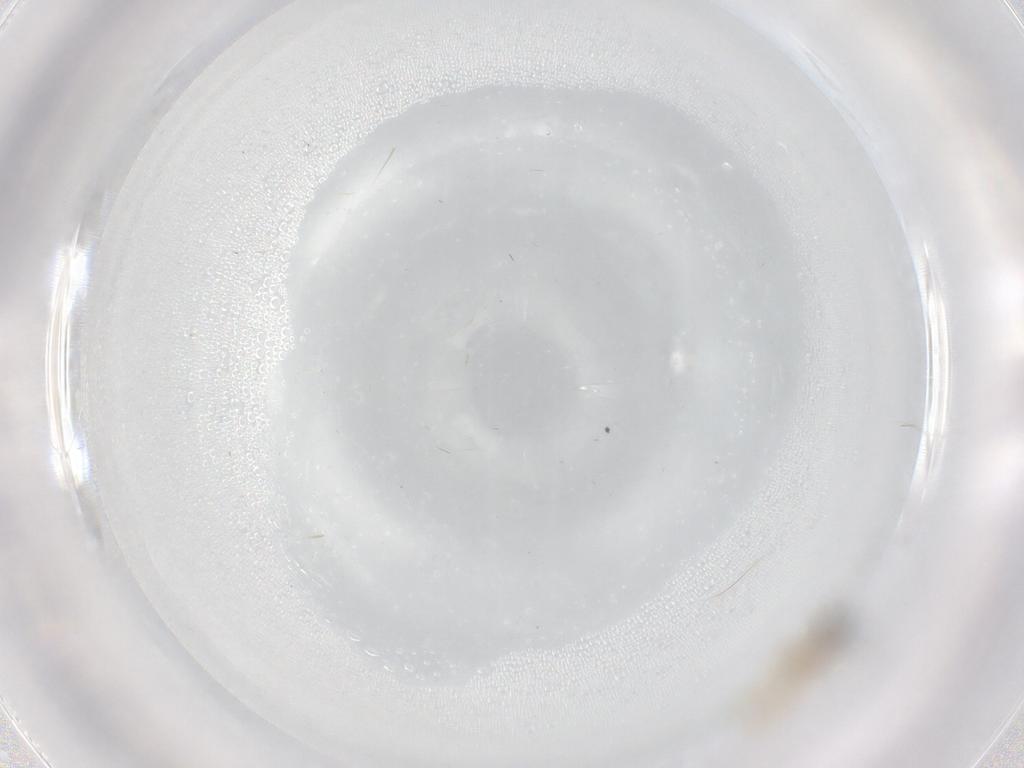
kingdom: Animalia
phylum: Arthropoda
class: Insecta
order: Diptera
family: Cecidomyiidae
